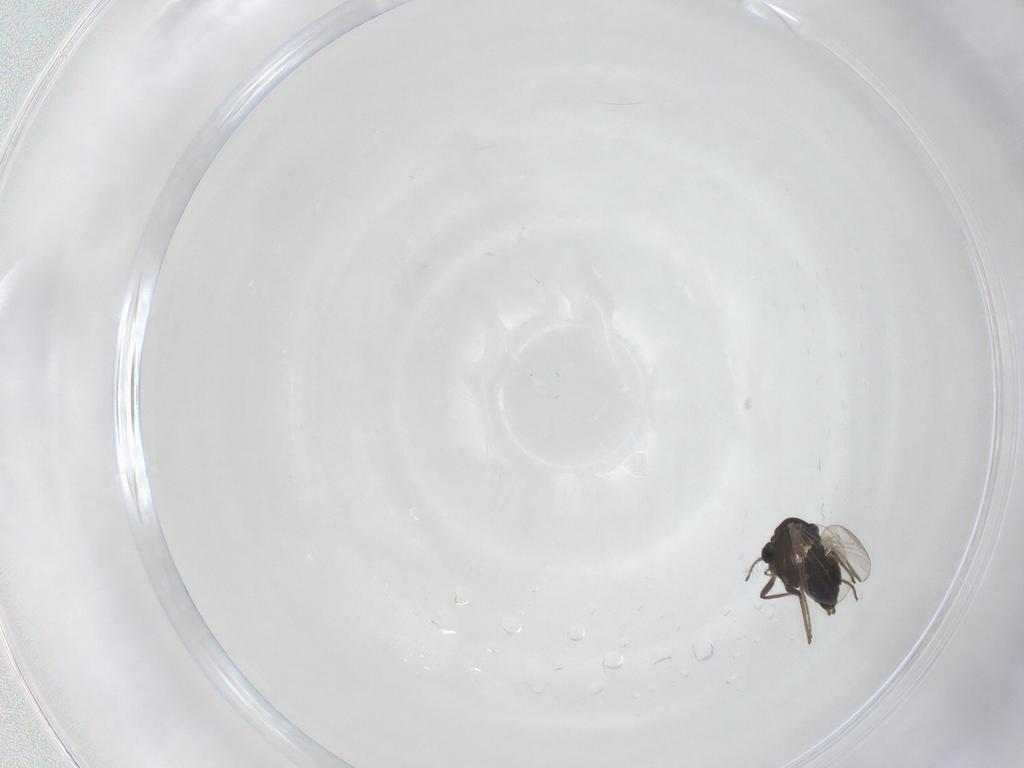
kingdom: Animalia
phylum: Arthropoda
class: Insecta
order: Diptera
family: Chironomidae
